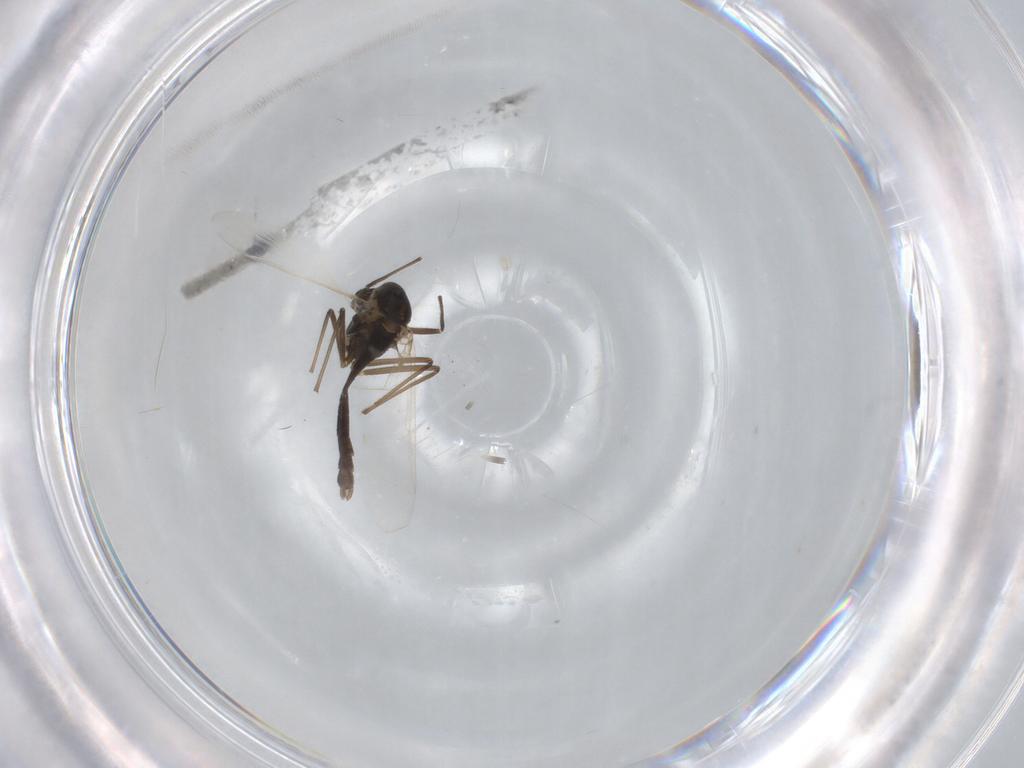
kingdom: Animalia
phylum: Arthropoda
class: Insecta
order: Diptera
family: Chironomidae
